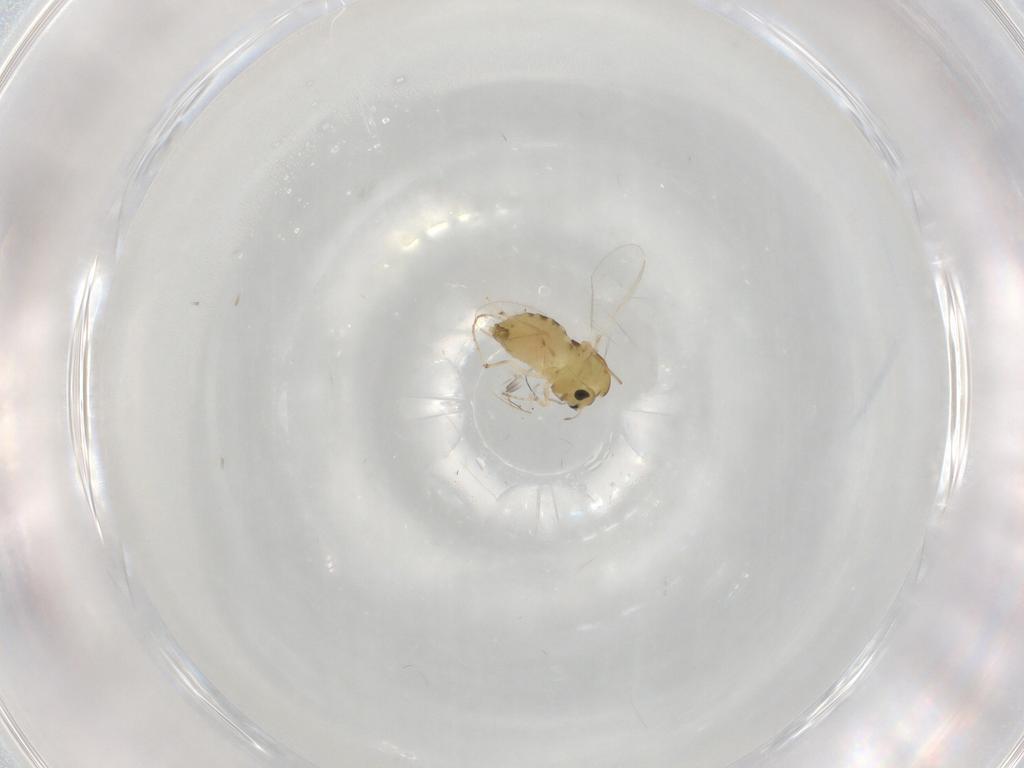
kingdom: Animalia
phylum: Arthropoda
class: Insecta
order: Diptera
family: Chironomidae
